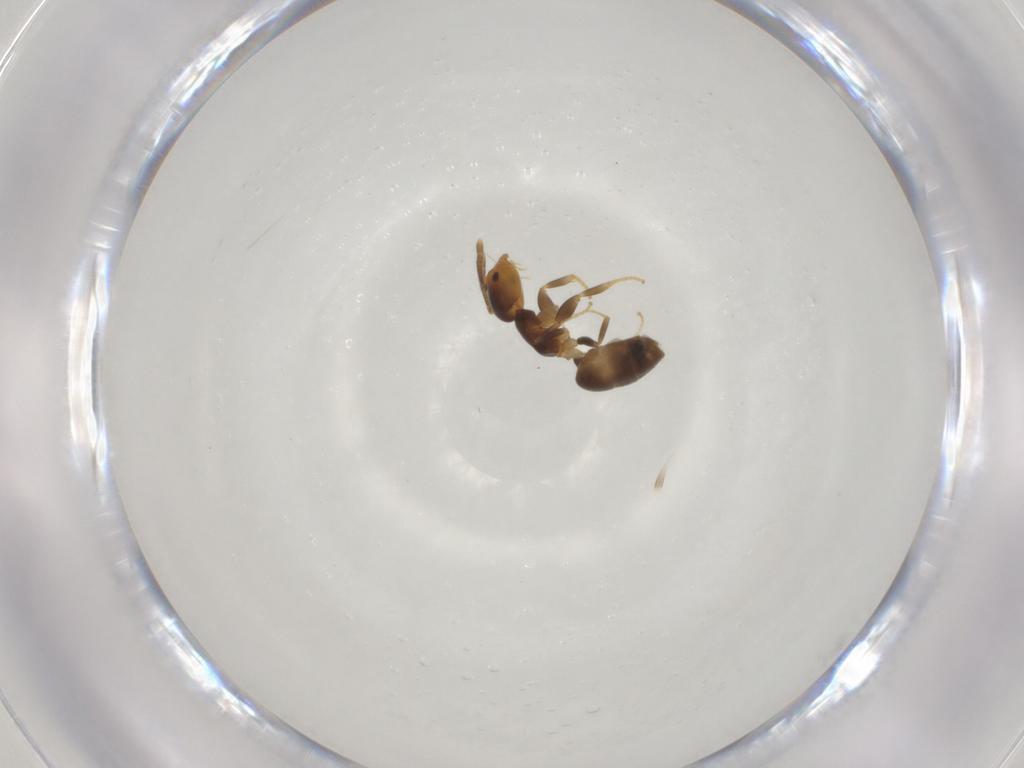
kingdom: Animalia
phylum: Arthropoda
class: Insecta
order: Hymenoptera
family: Formicidae
